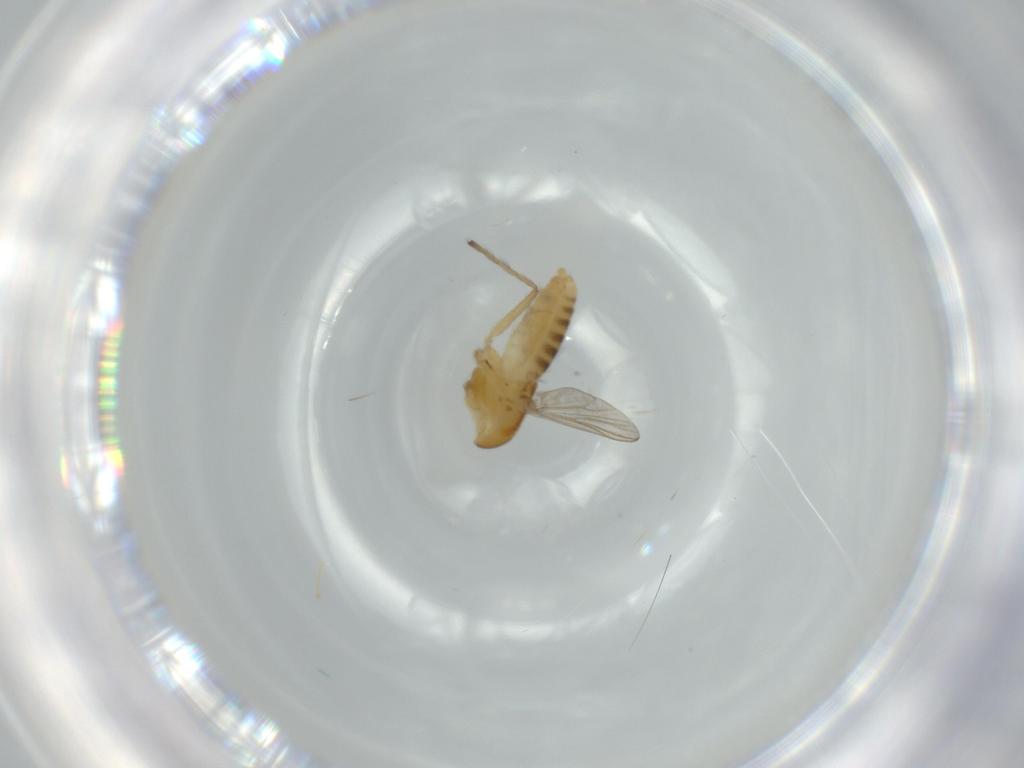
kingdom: Animalia
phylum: Arthropoda
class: Insecta
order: Diptera
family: Chironomidae
